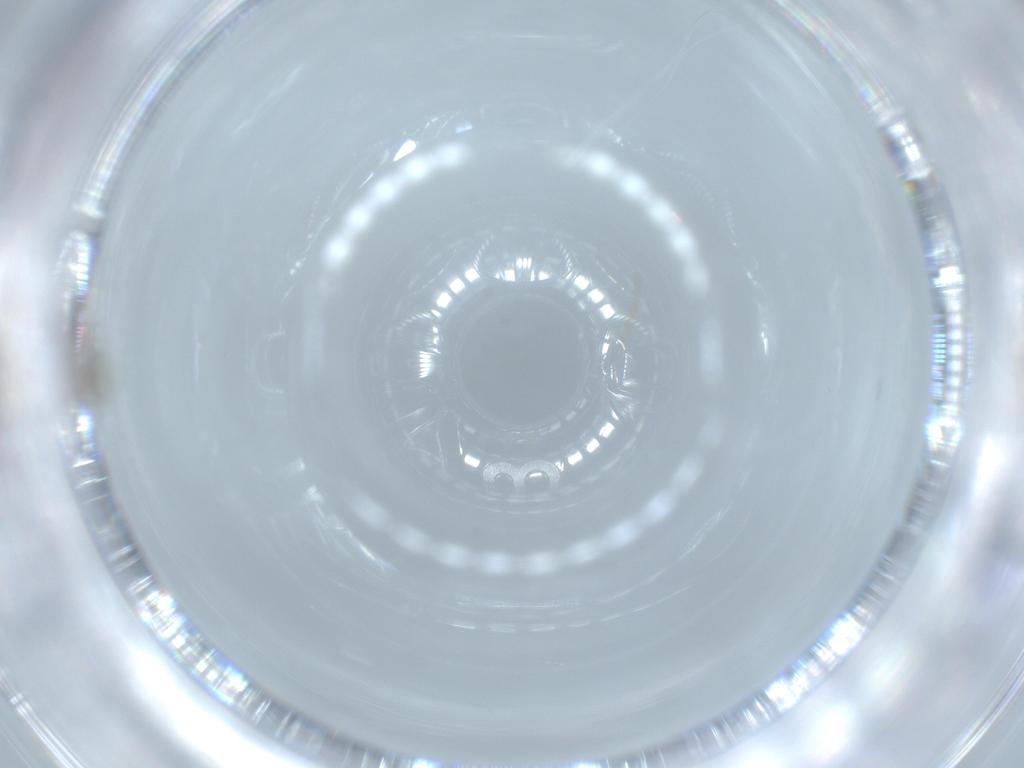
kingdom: Animalia
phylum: Arthropoda
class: Insecta
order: Diptera
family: Chironomidae
